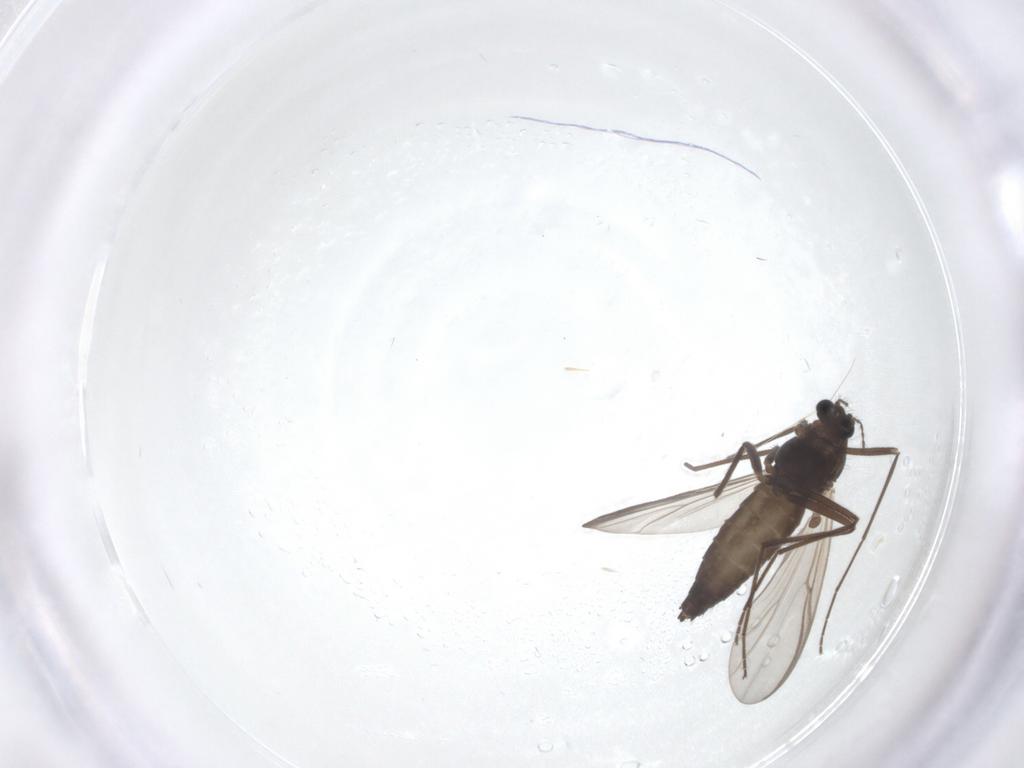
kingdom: Animalia
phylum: Arthropoda
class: Insecta
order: Diptera
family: Chironomidae
